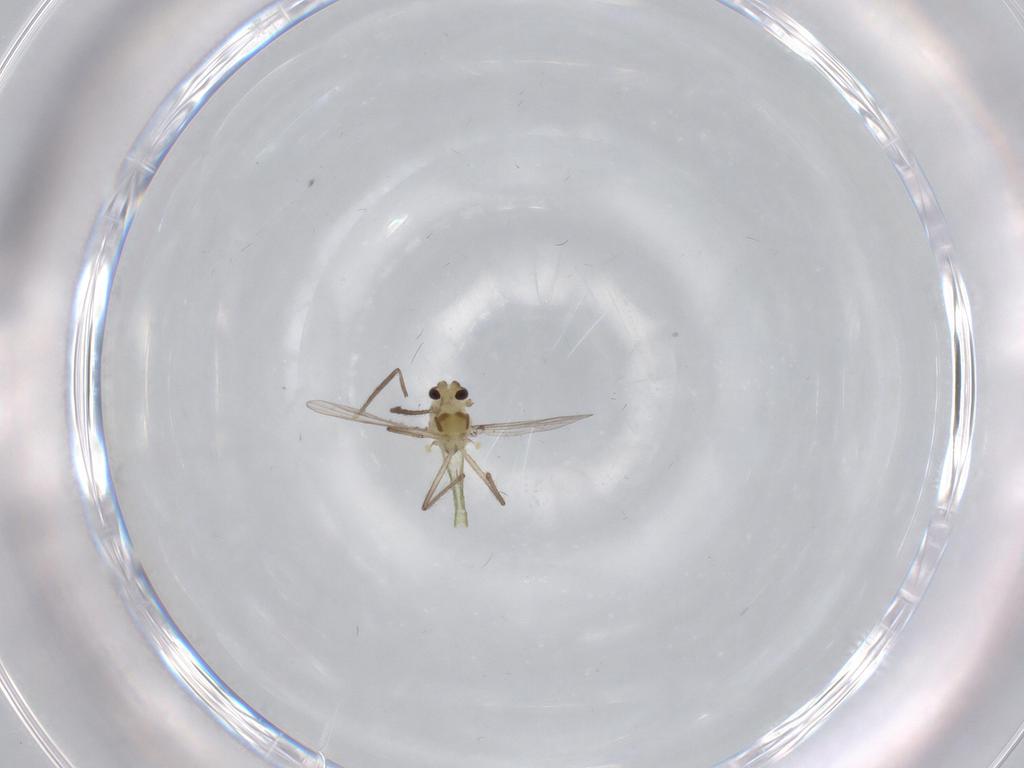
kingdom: Animalia
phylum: Arthropoda
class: Insecta
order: Diptera
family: Chironomidae
